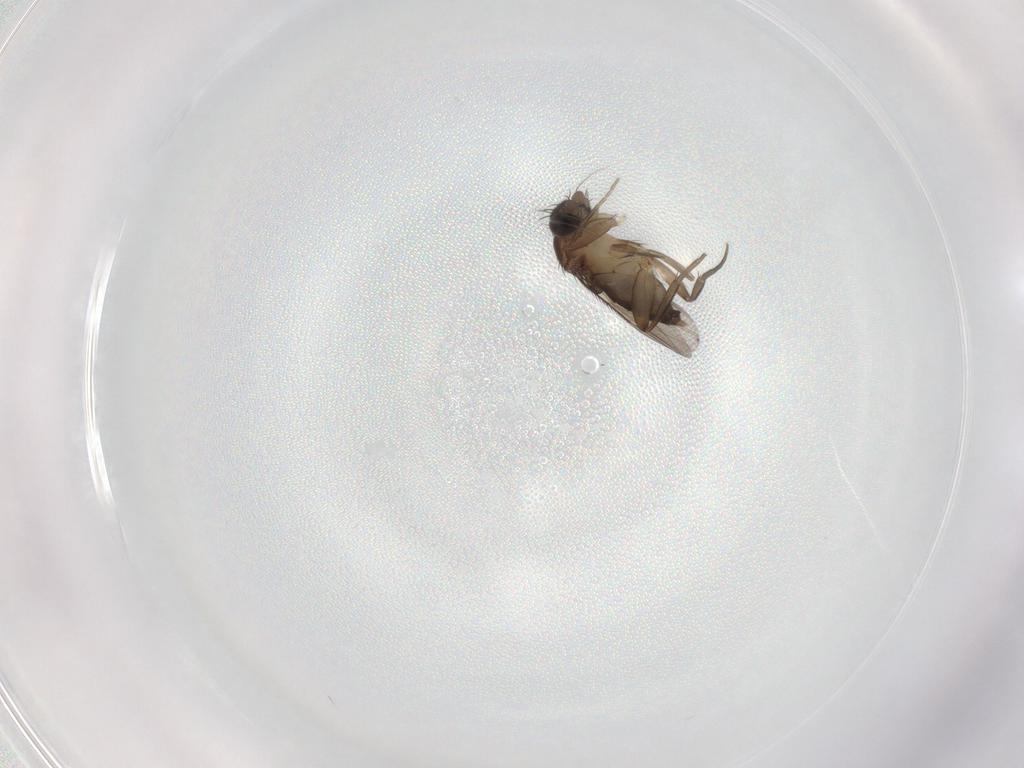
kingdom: Animalia
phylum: Arthropoda
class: Insecta
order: Diptera
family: Phoridae
